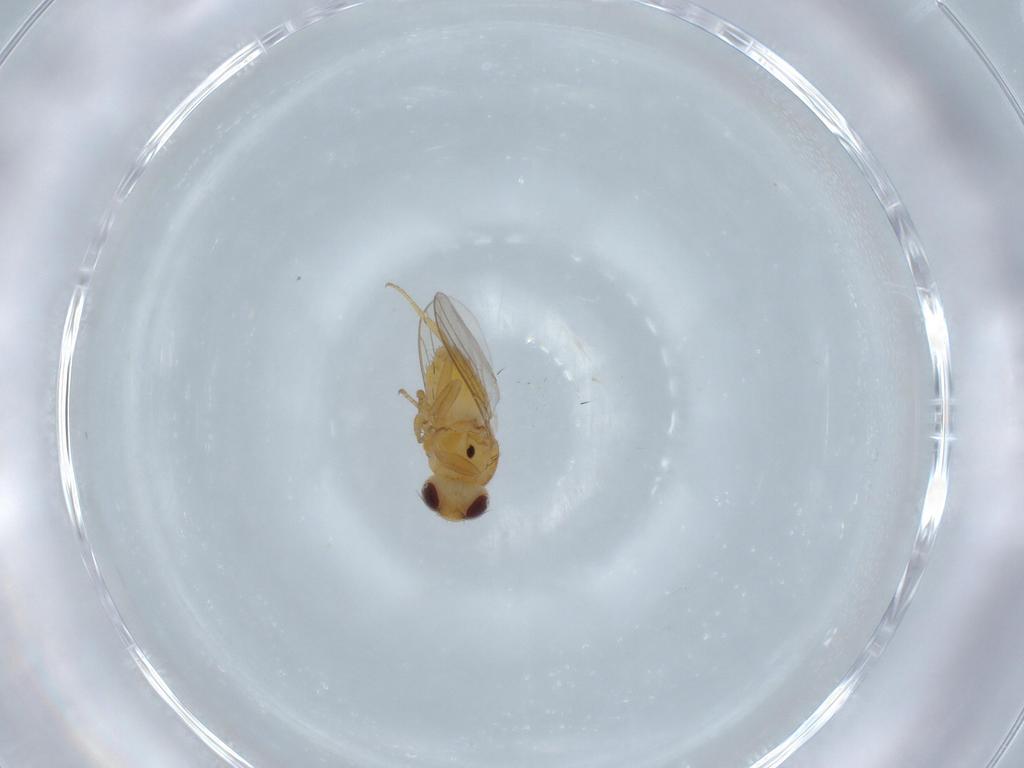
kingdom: Animalia
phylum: Arthropoda
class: Insecta
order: Diptera
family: Chloropidae
